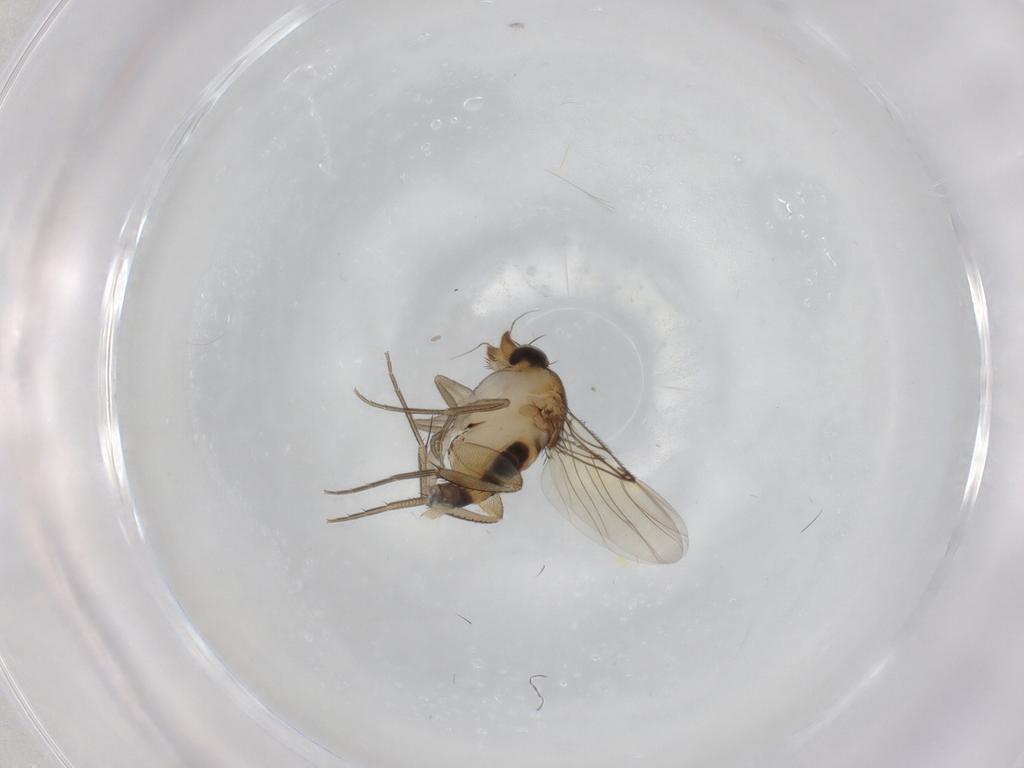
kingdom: Animalia
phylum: Arthropoda
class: Insecta
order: Diptera
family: Phoridae
